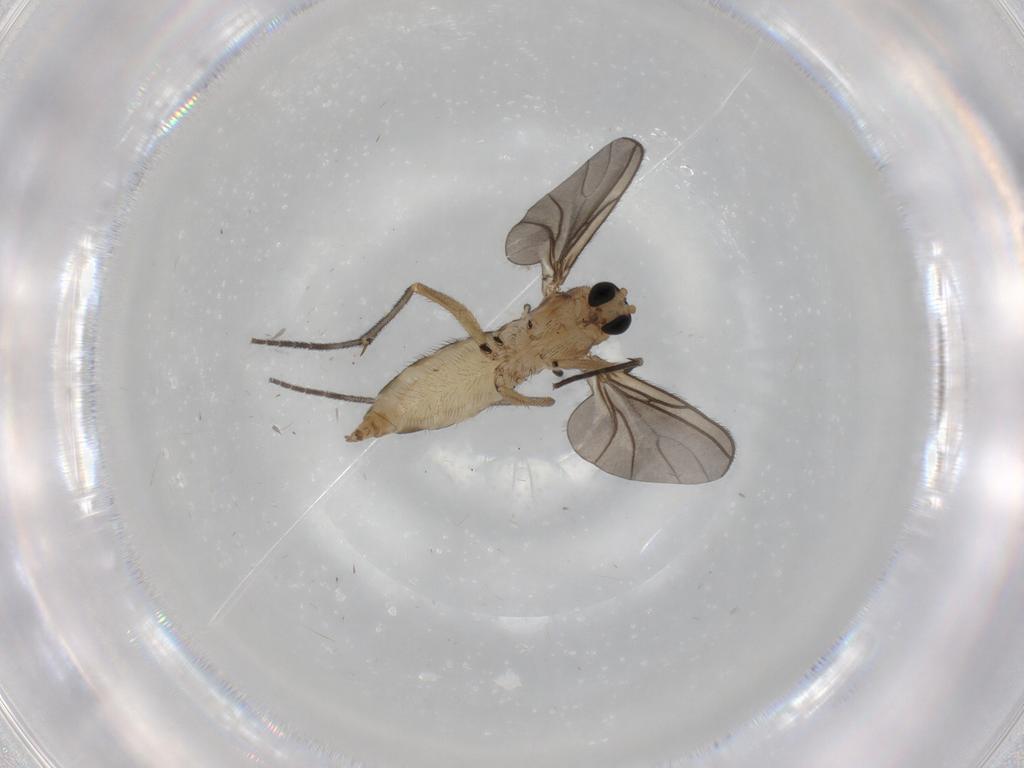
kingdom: Animalia
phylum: Arthropoda
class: Insecta
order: Diptera
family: Sciaridae
